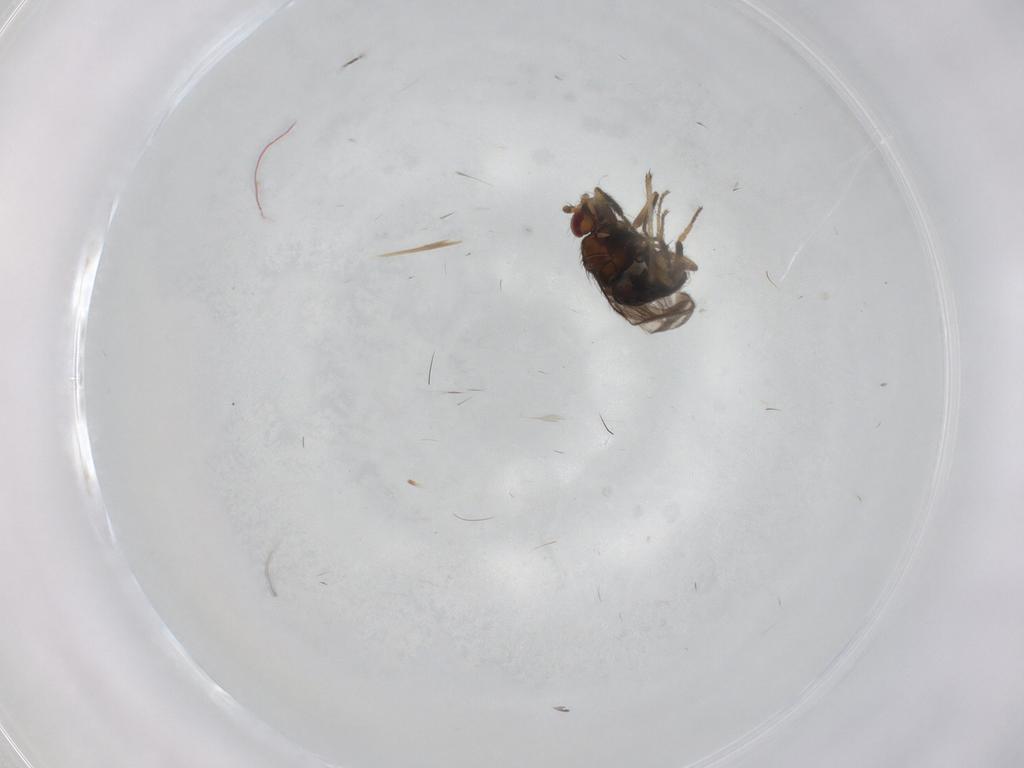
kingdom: Animalia
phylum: Arthropoda
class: Insecta
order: Diptera
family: Sphaeroceridae
